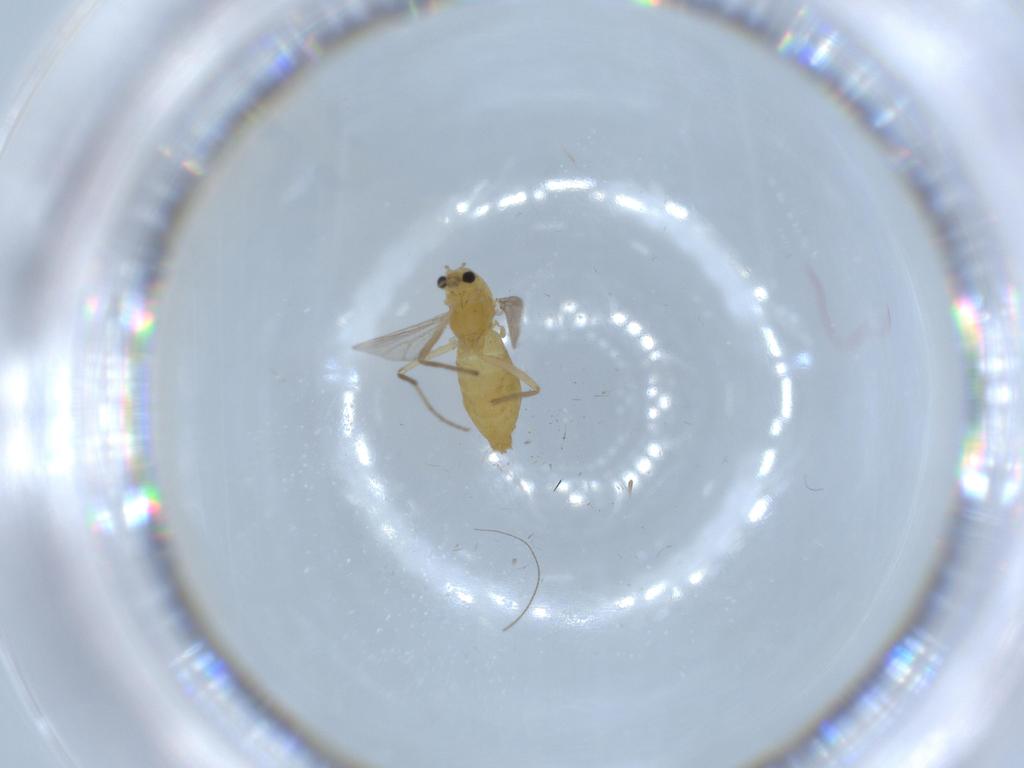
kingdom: Animalia
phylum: Arthropoda
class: Insecta
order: Diptera
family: Chironomidae
